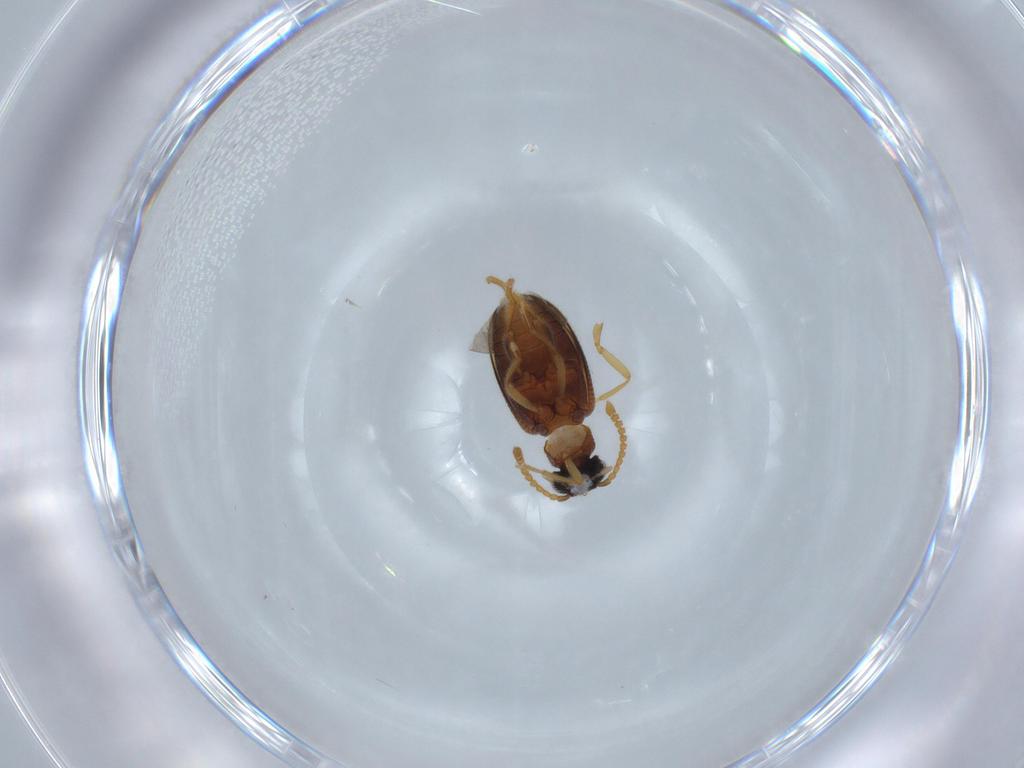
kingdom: Animalia
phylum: Arthropoda
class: Insecta
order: Coleoptera
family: Aderidae
